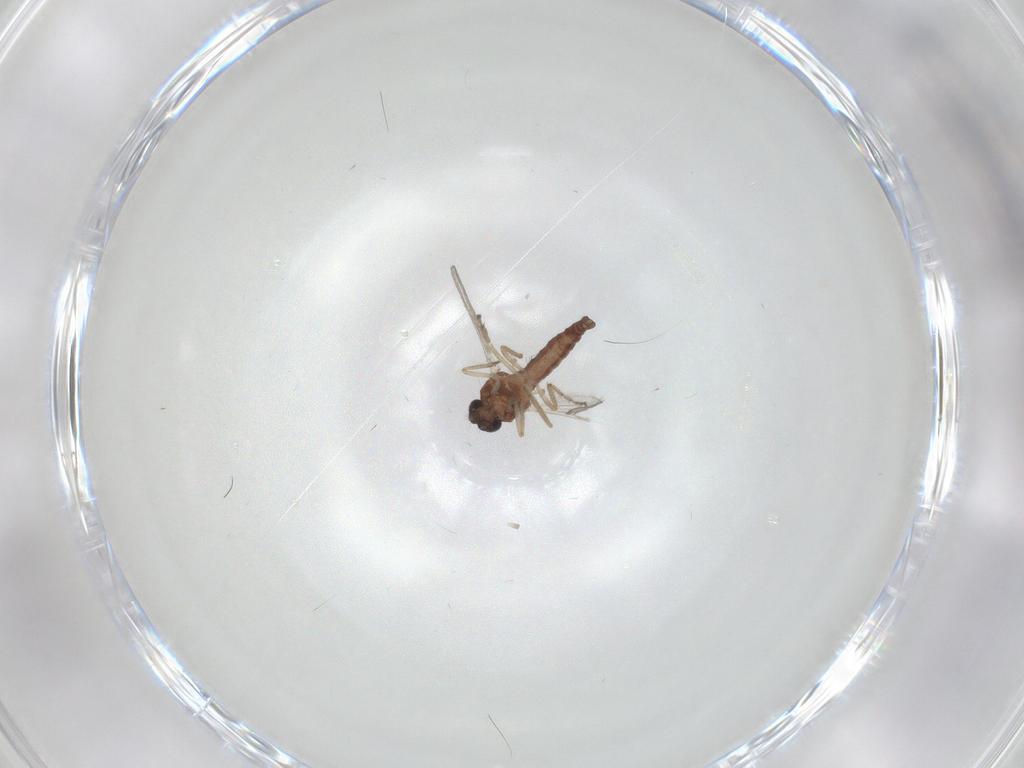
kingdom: Animalia
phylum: Arthropoda
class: Insecta
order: Diptera
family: Ceratopogonidae
